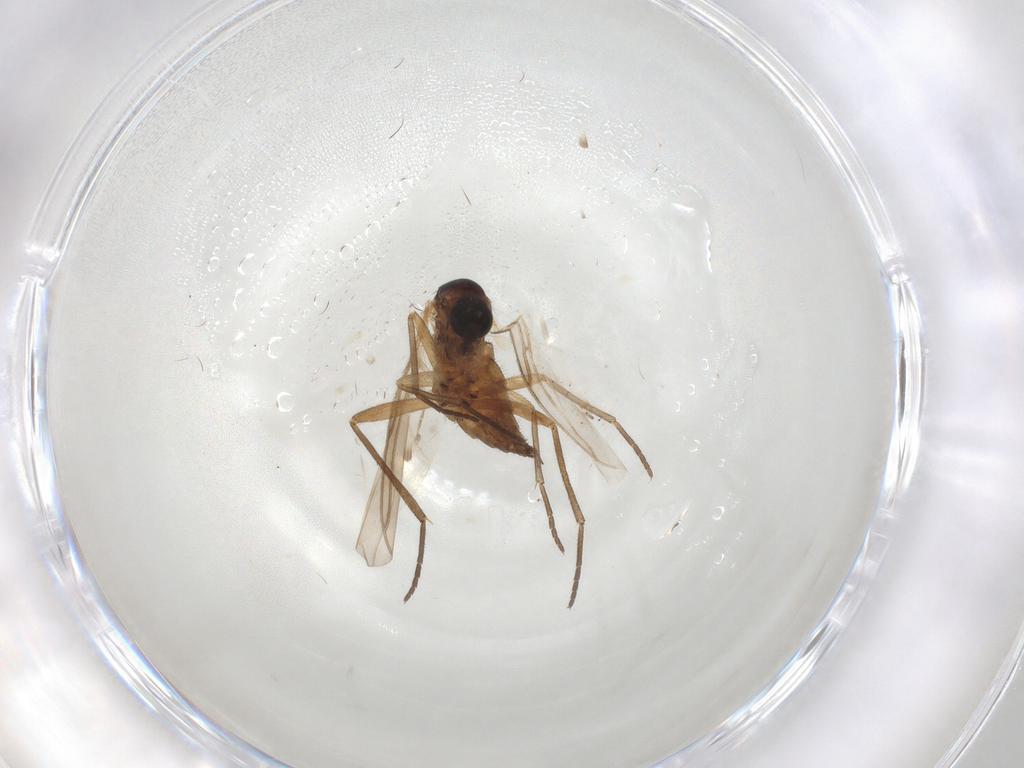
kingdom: Animalia
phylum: Arthropoda
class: Insecta
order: Diptera
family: Sciaridae
